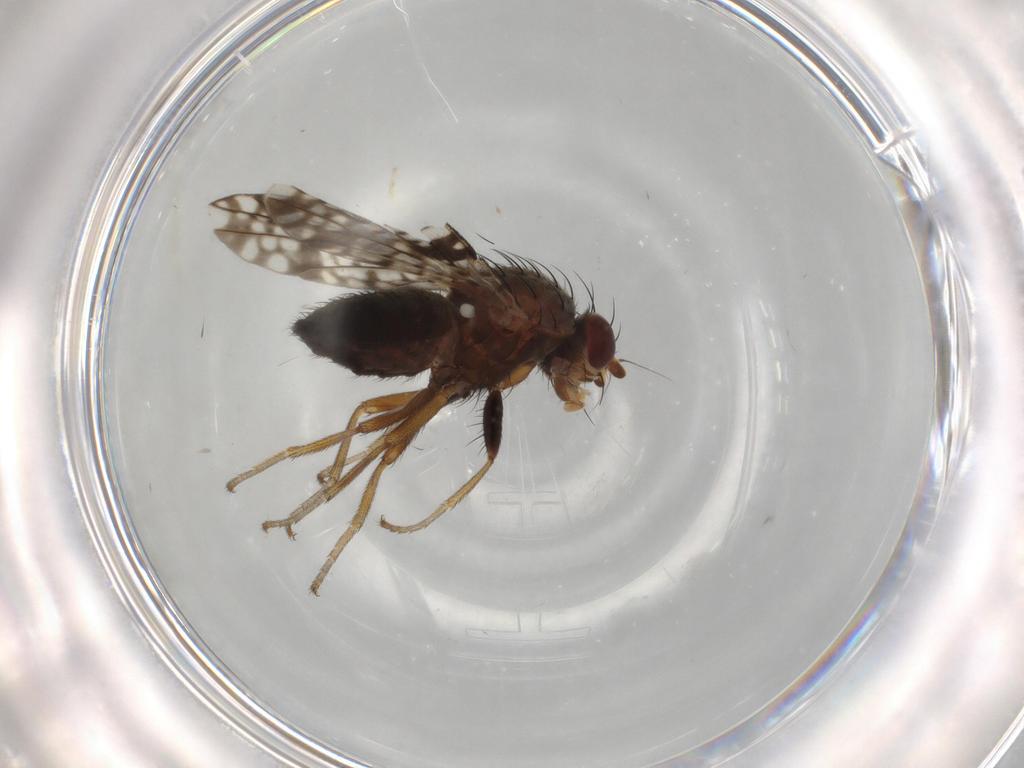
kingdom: Animalia
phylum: Arthropoda
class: Insecta
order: Diptera
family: Tephritidae
